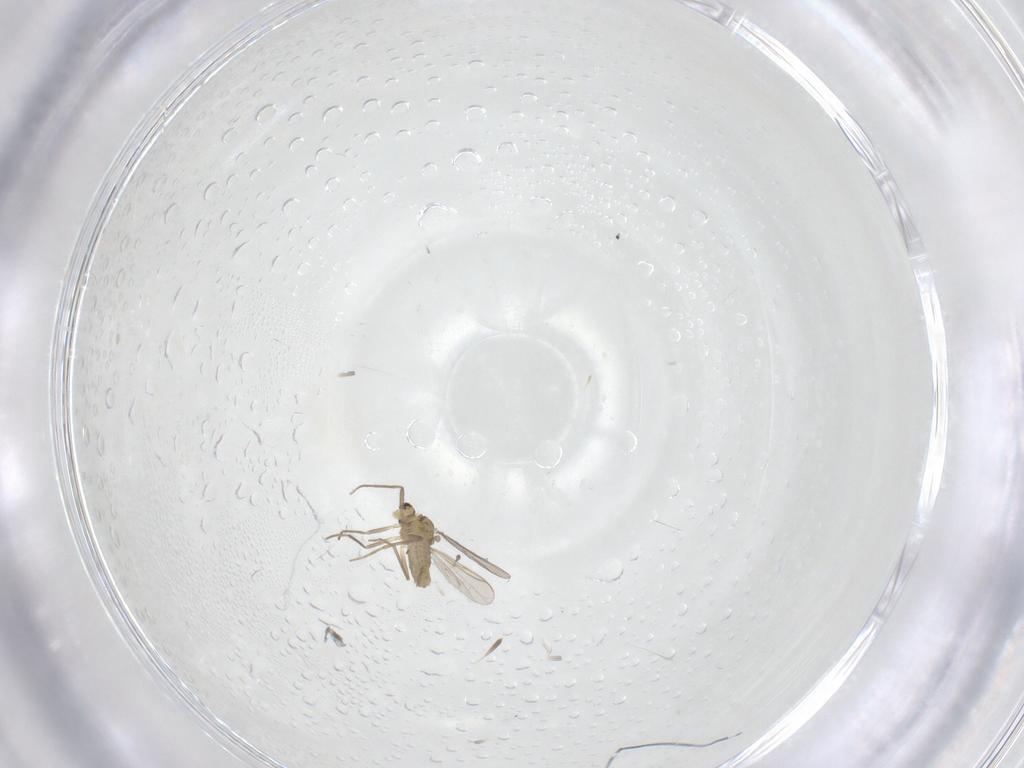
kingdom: Animalia
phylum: Arthropoda
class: Insecta
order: Diptera
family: Chironomidae
